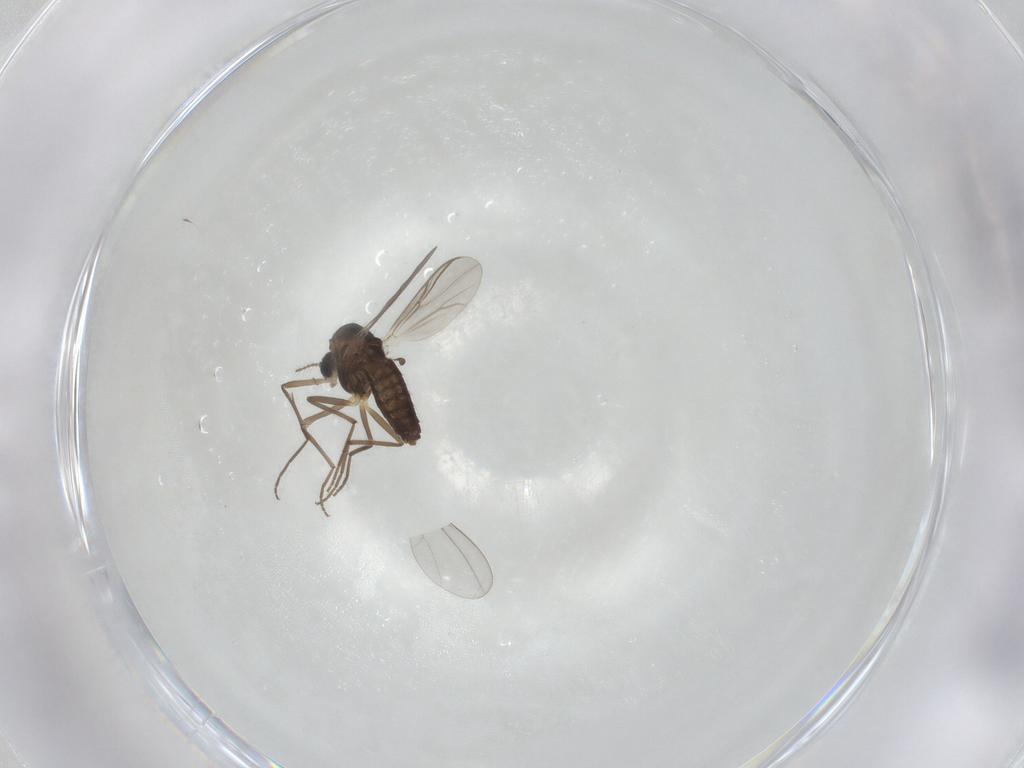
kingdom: Animalia
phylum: Arthropoda
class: Insecta
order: Diptera
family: Chironomidae
